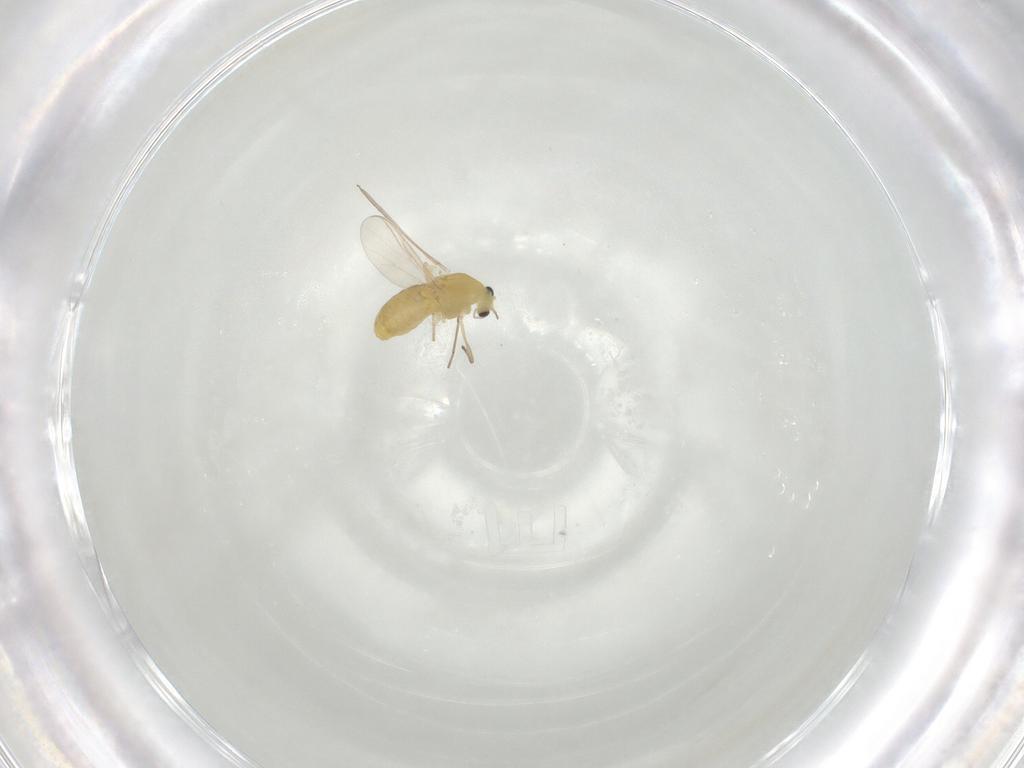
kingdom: Animalia
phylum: Arthropoda
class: Insecta
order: Diptera
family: Chironomidae
